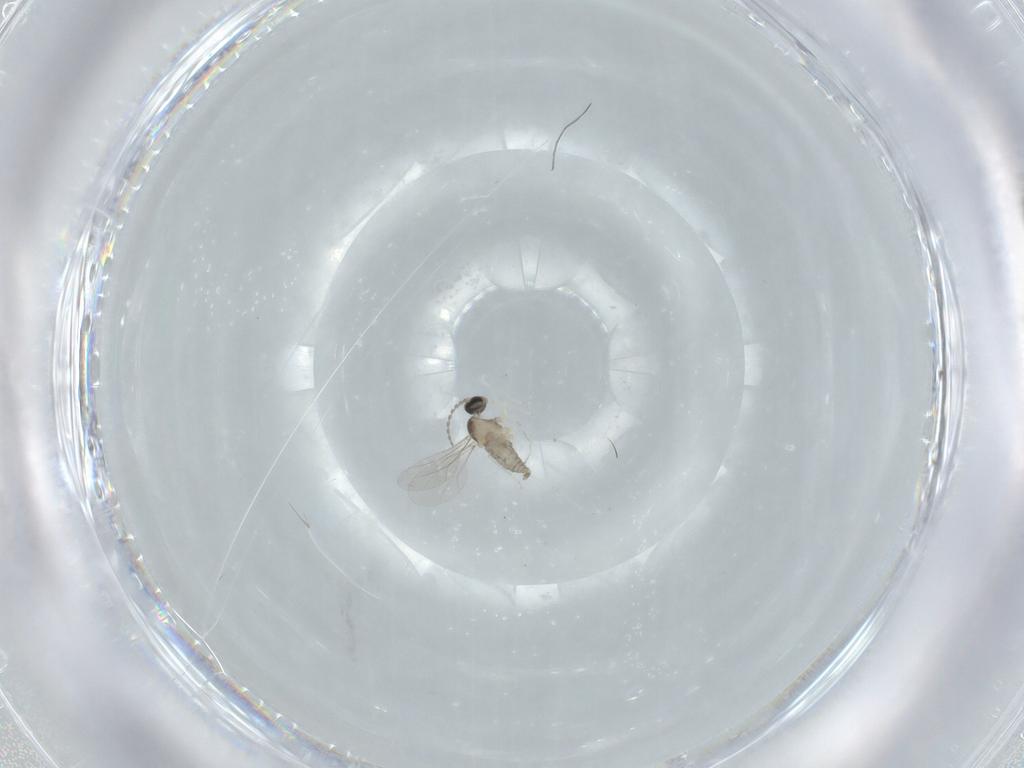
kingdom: Animalia
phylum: Arthropoda
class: Insecta
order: Diptera
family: Cecidomyiidae
